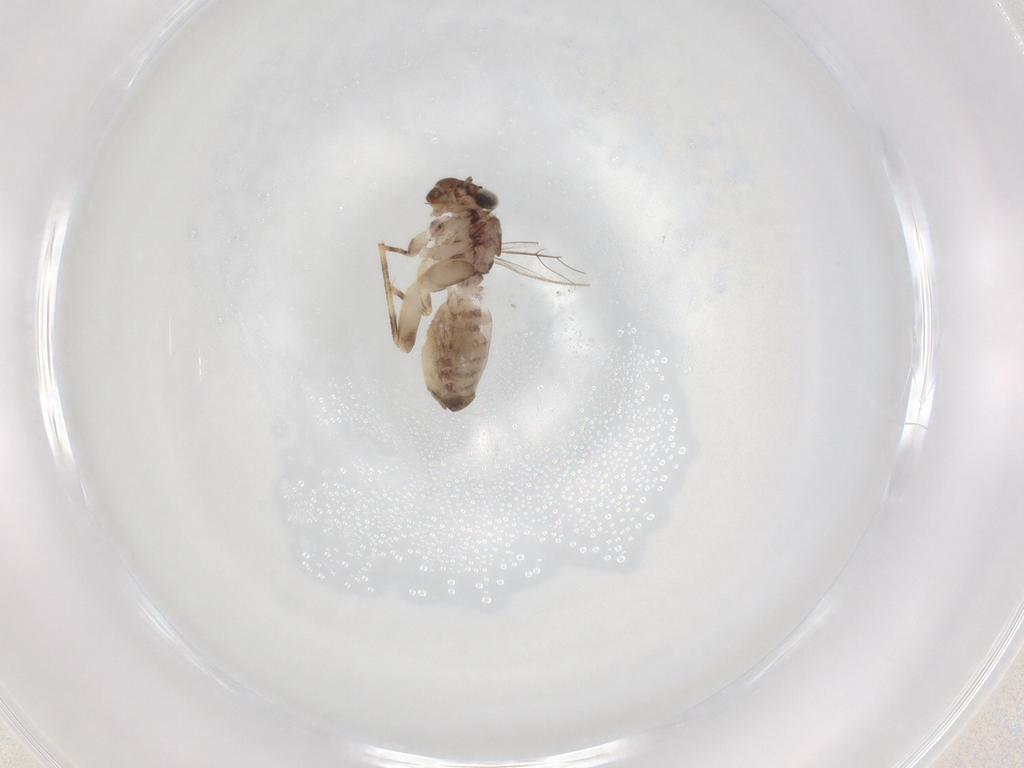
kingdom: Animalia
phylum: Arthropoda
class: Insecta
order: Psocodea
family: Lepidopsocidae
